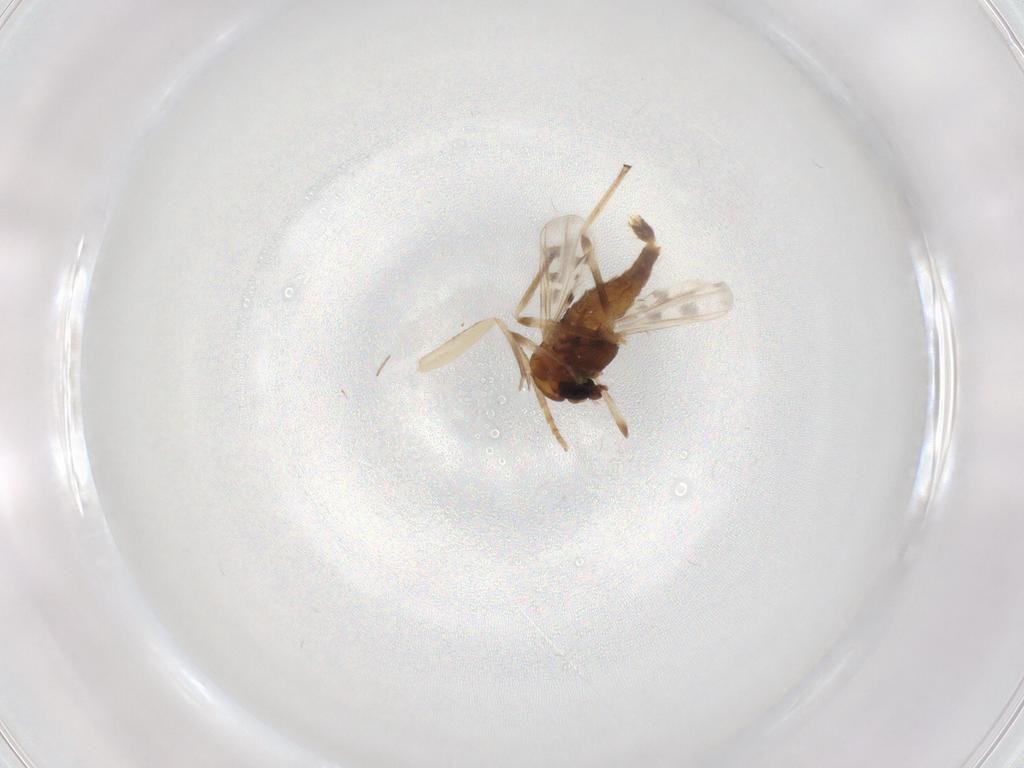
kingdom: Animalia
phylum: Arthropoda
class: Insecta
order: Diptera
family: Chironomidae
